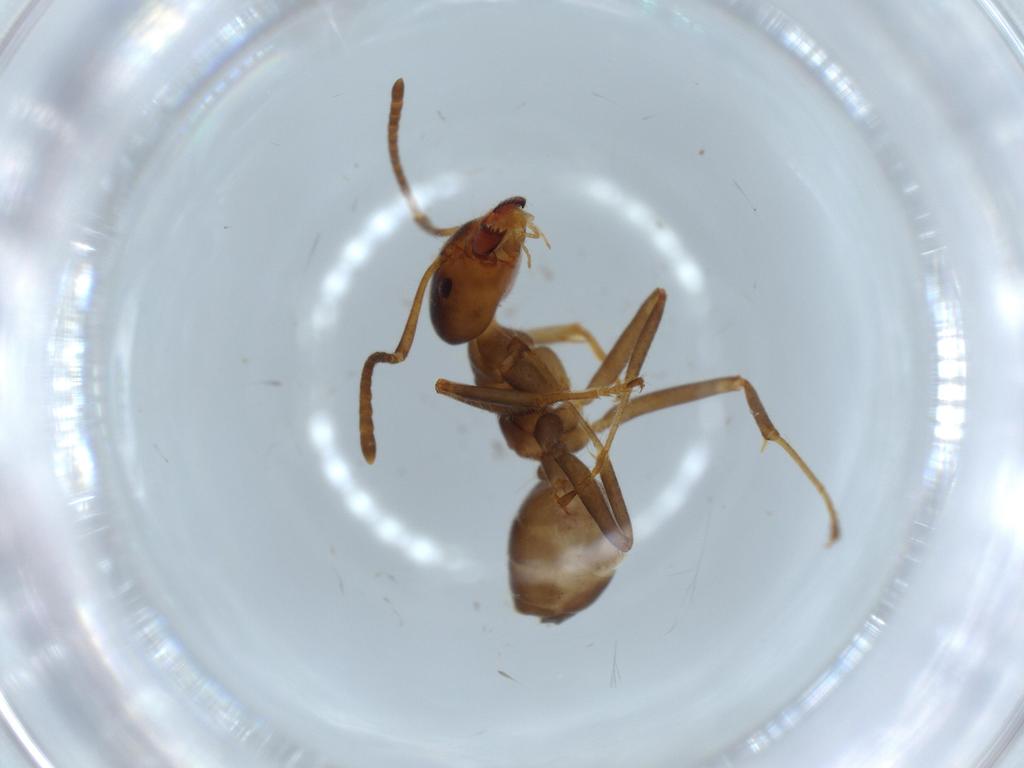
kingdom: Animalia
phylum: Arthropoda
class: Insecta
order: Hymenoptera
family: Formicidae
